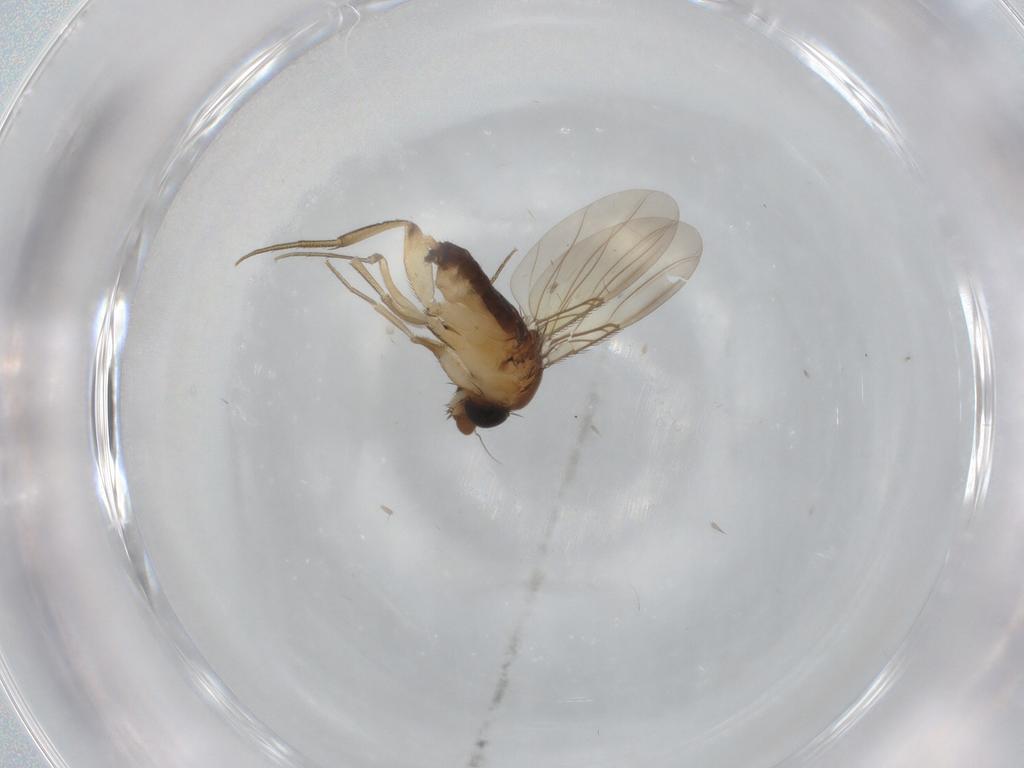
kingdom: Animalia
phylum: Arthropoda
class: Insecta
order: Diptera
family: Phoridae
